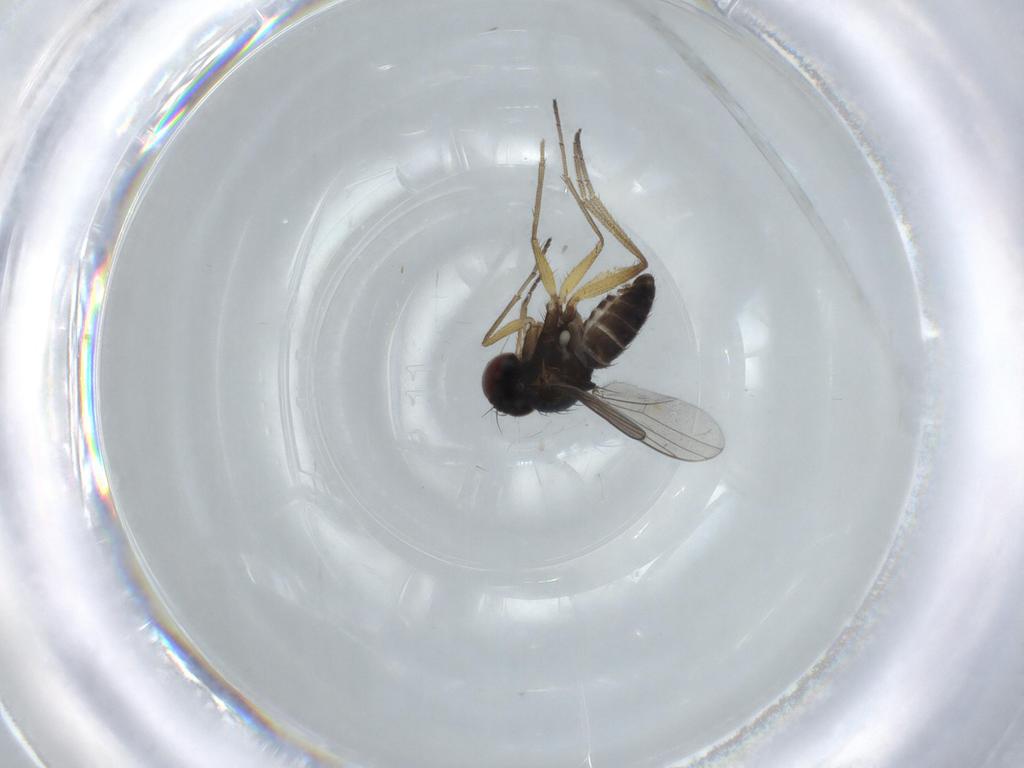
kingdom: Animalia
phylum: Arthropoda
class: Insecta
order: Diptera
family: Dolichopodidae
